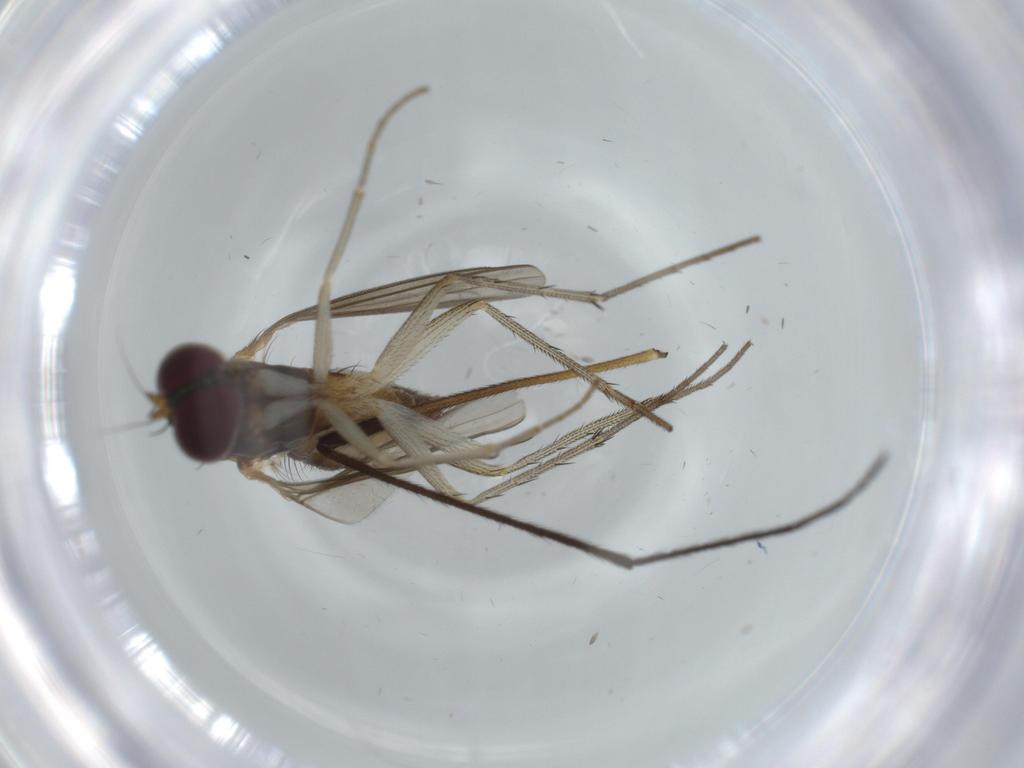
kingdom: Animalia
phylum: Arthropoda
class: Insecta
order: Diptera
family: Dolichopodidae
